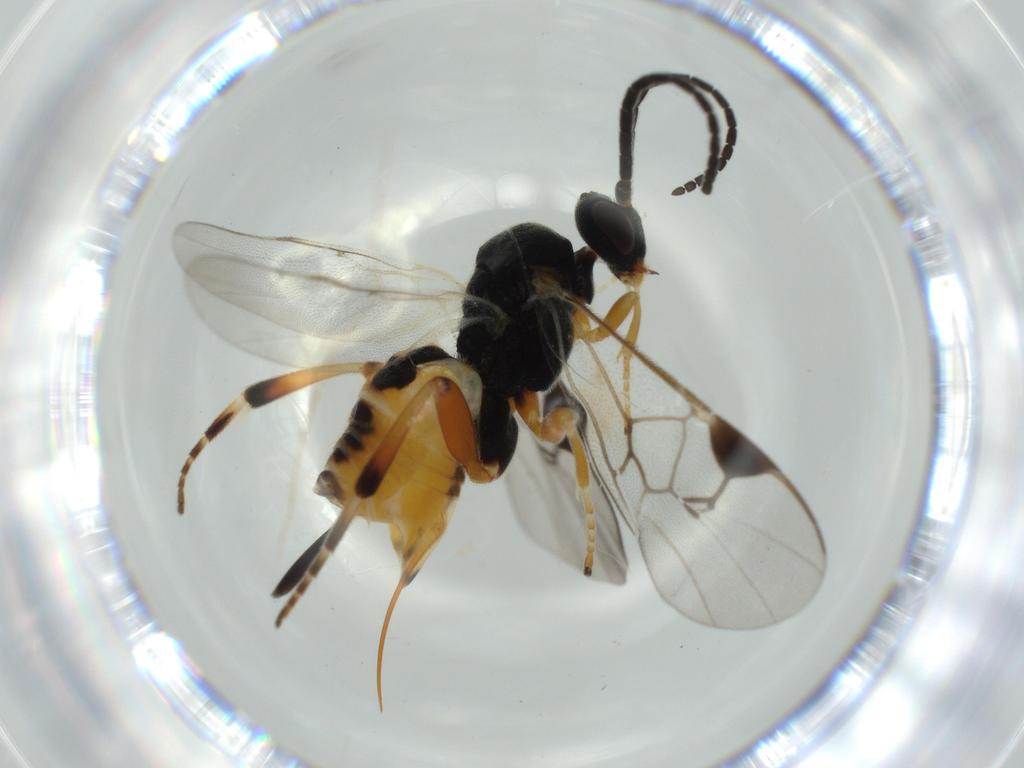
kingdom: Animalia
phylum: Arthropoda
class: Insecta
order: Hymenoptera
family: Braconidae
